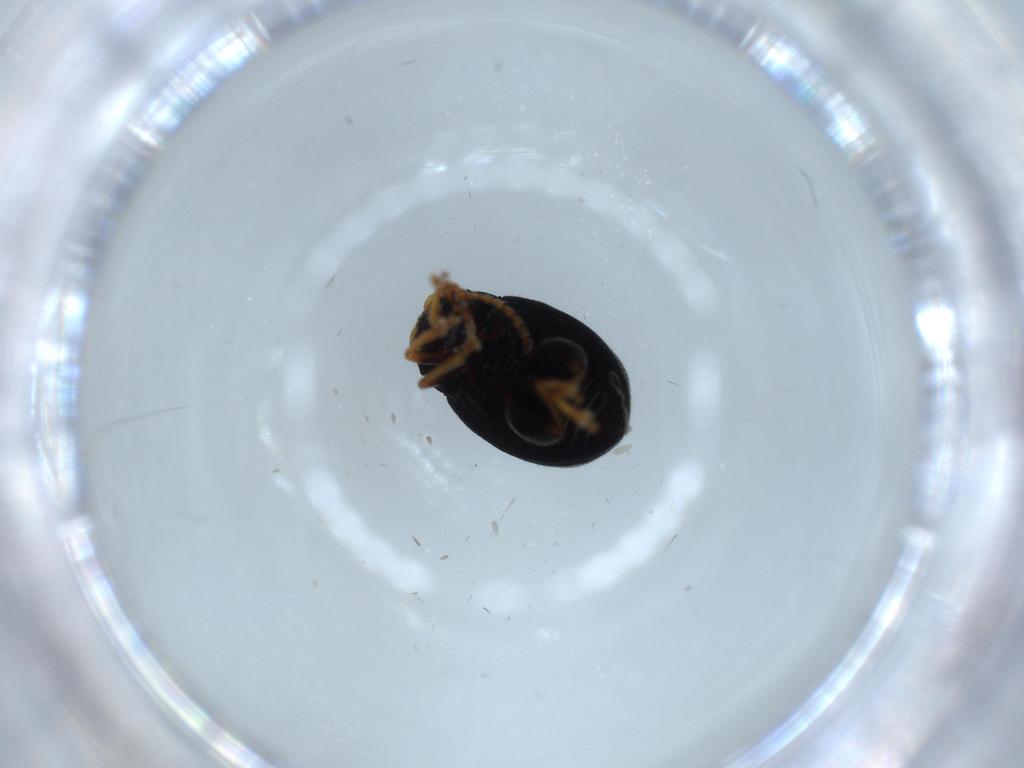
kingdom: Animalia
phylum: Arthropoda
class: Insecta
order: Coleoptera
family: Chrysomelidae
